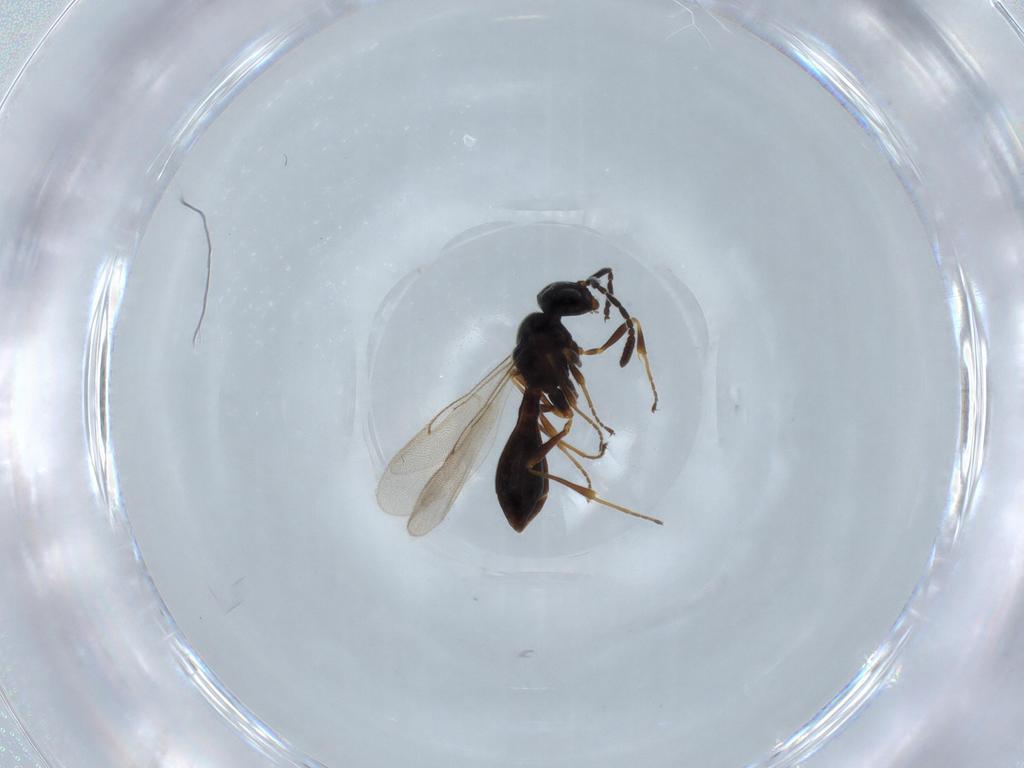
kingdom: Animalia
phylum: Arthropoda
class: Insecta
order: Hymenoptera
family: Scelionidae
